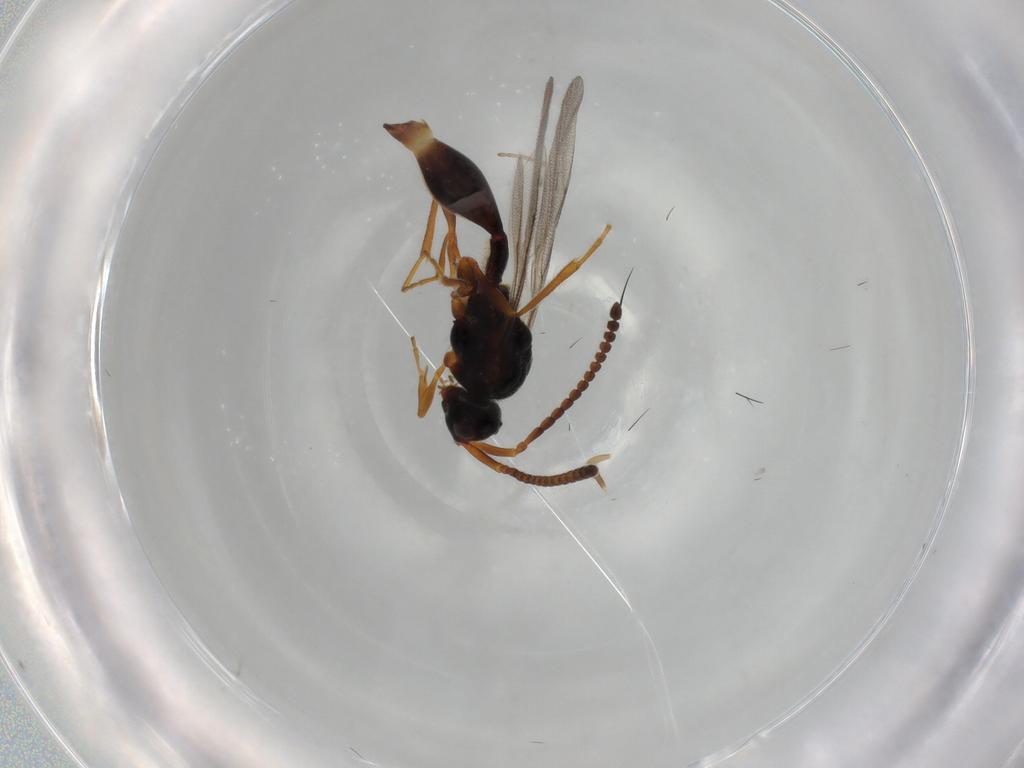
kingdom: Animalia
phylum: Arthropoda
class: Insecta
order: Hymenoptera
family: Diapriidae
